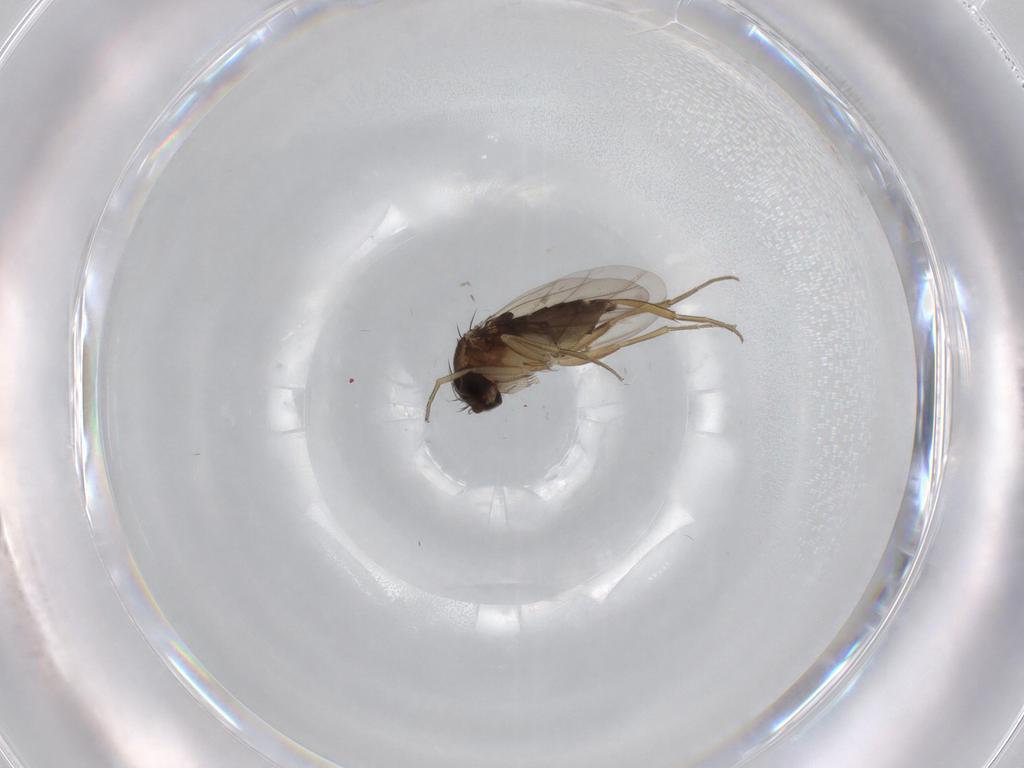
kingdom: Animalia
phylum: Arthropoda
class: Insecta
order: Diptera
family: Phoridae
